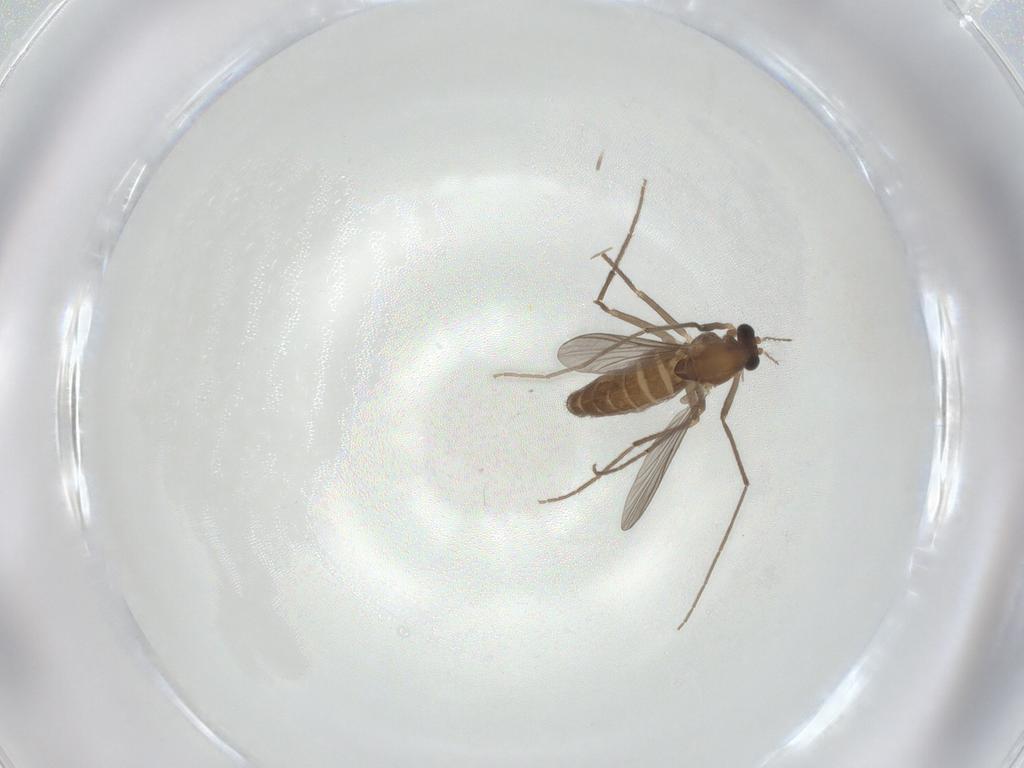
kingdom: Animalia
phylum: Arthropoda
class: Insecta
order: Diptera
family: Chironomidae
